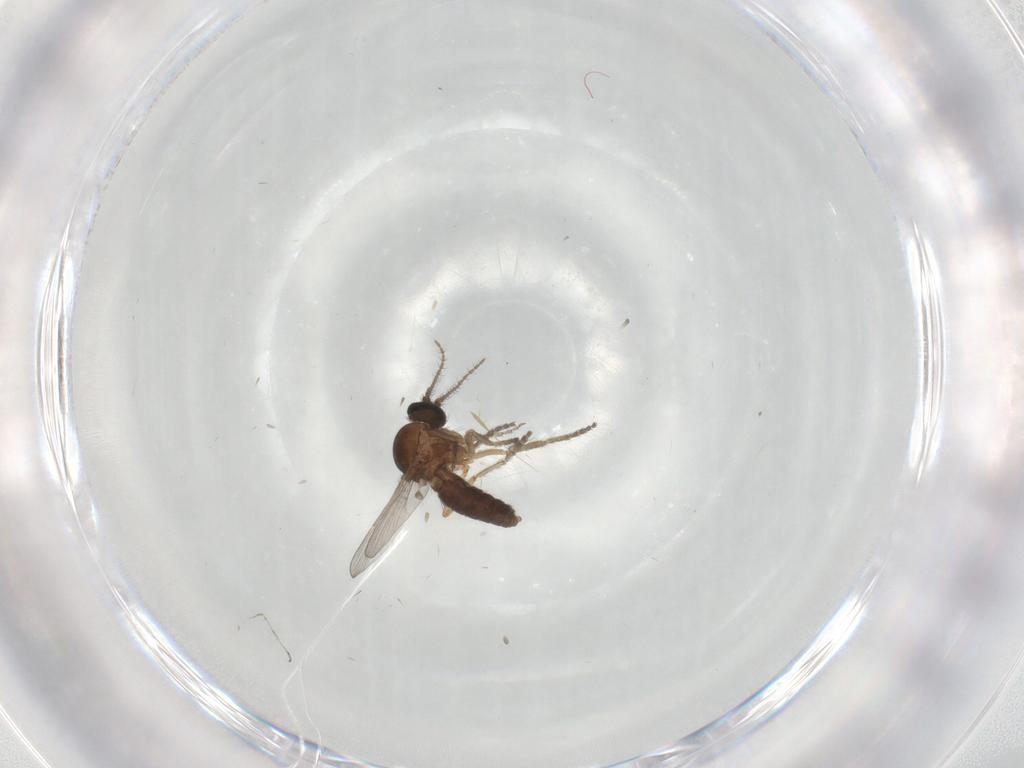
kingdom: Animalia
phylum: Arthropoda
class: Insecta
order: Diptera
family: Ceratopogonidae
